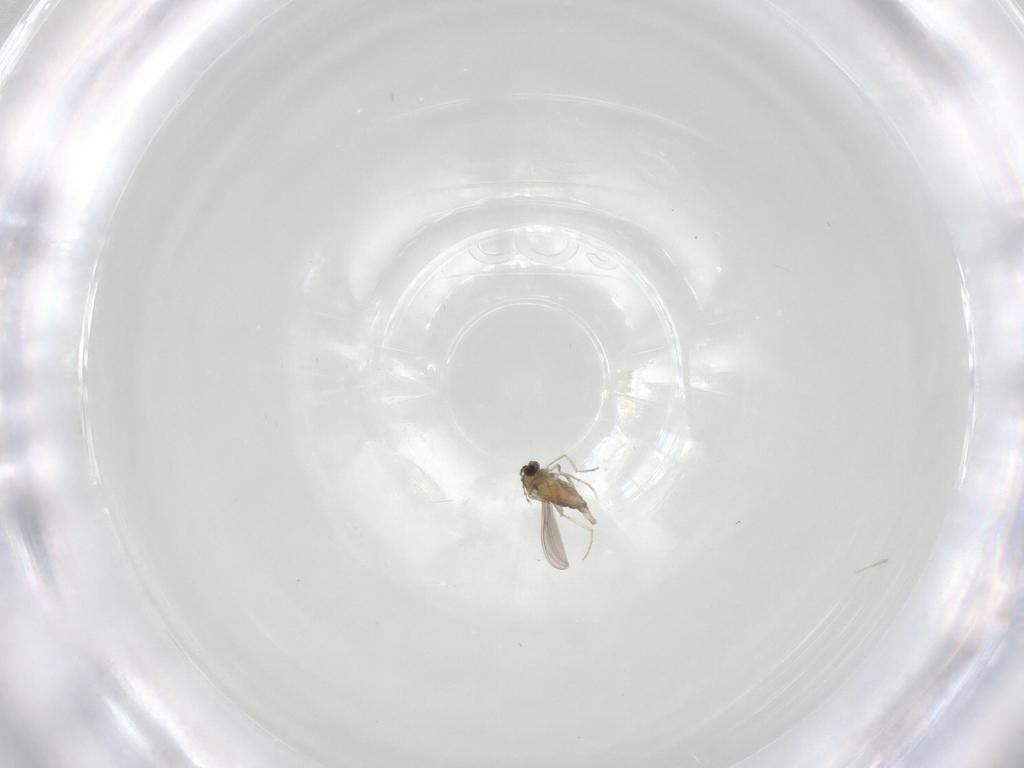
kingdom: Animalia
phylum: Arthropoda
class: Insecta
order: Diptera
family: Cecidomyiidae
